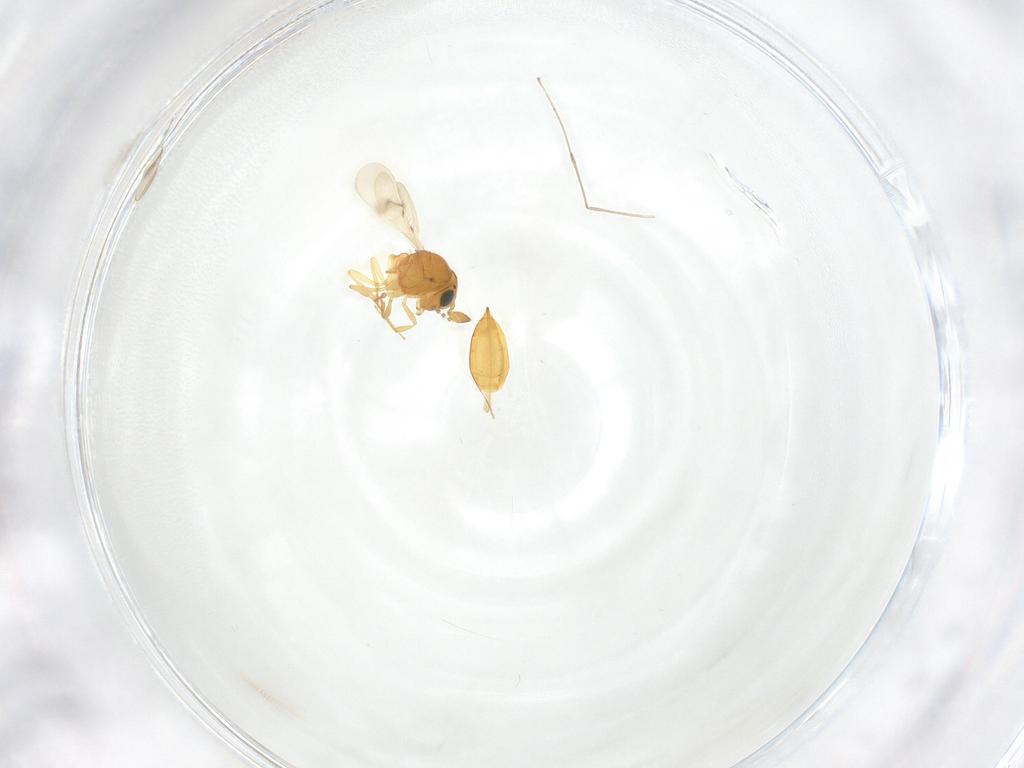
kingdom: Animalia
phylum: Arthropoda
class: Insecta
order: Hymenoptera
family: Scelionidae
